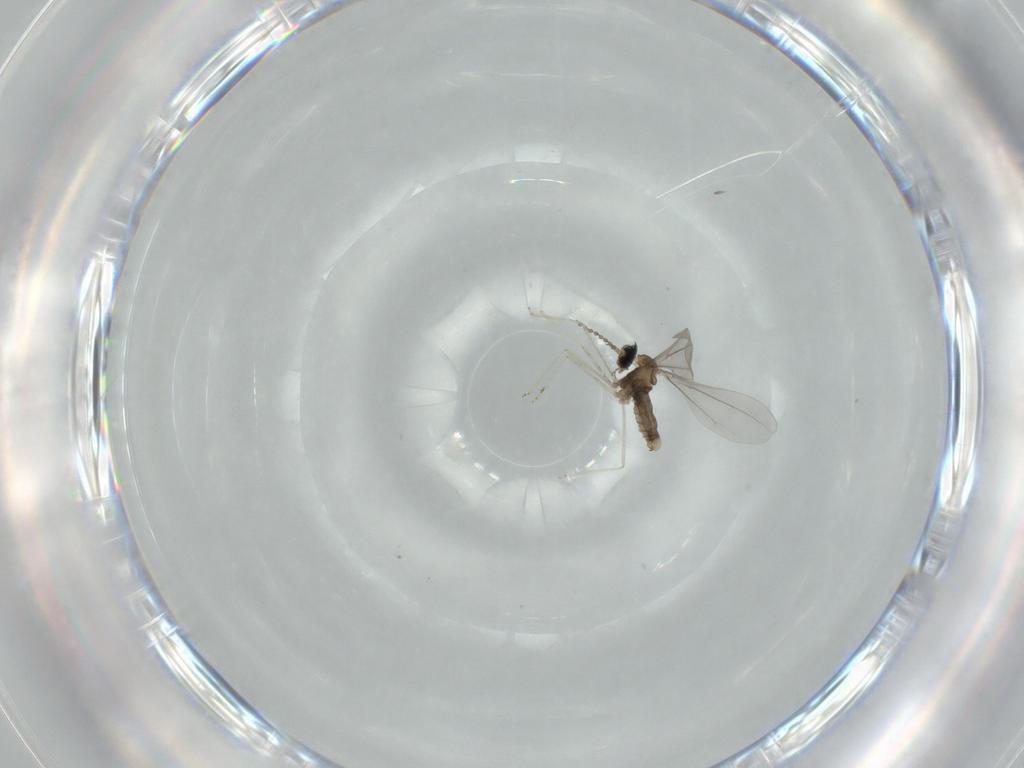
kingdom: Animalia
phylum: Arthropoda
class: Insecta
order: Diptera
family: Cecidomyiidae
